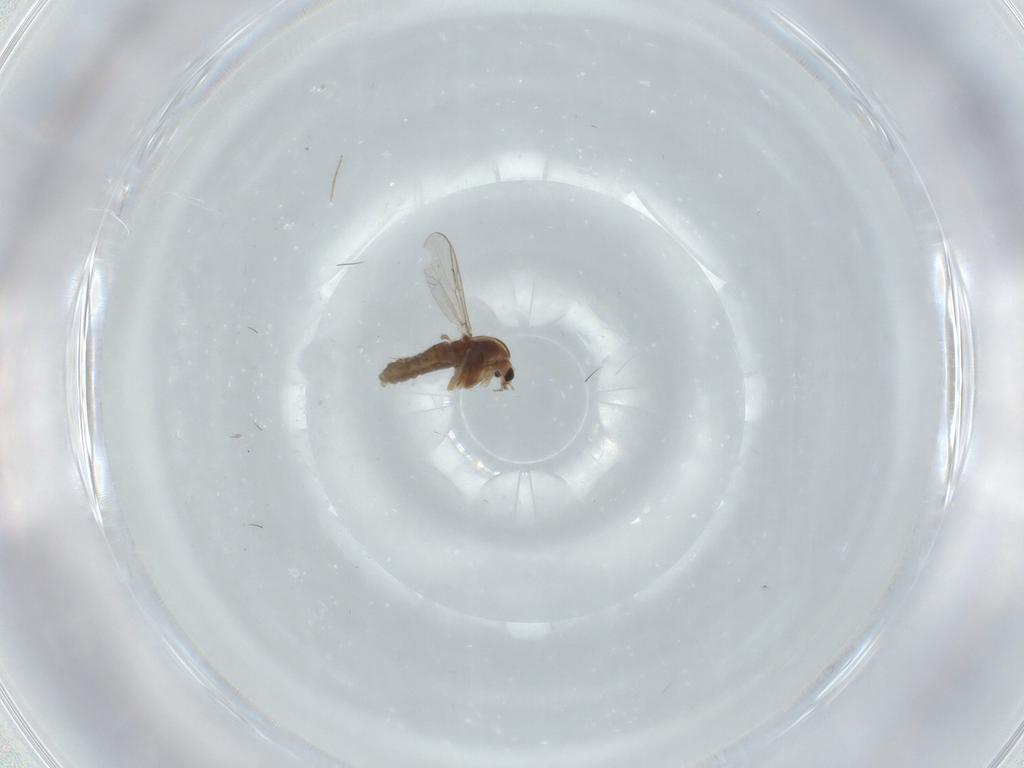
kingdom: Animalia
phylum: Arthropoda
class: Insecta
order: Diptera
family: Chironomidae
